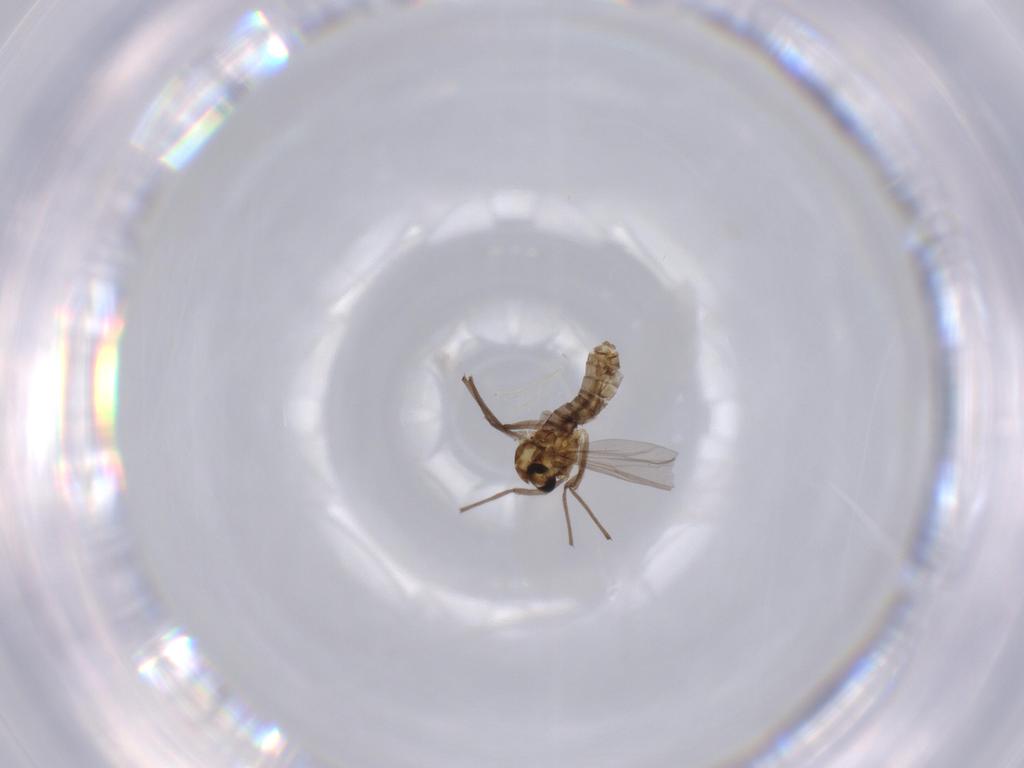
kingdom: Animalia
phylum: Arthropoda
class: Insecta
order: Diptera
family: Chironomidae
